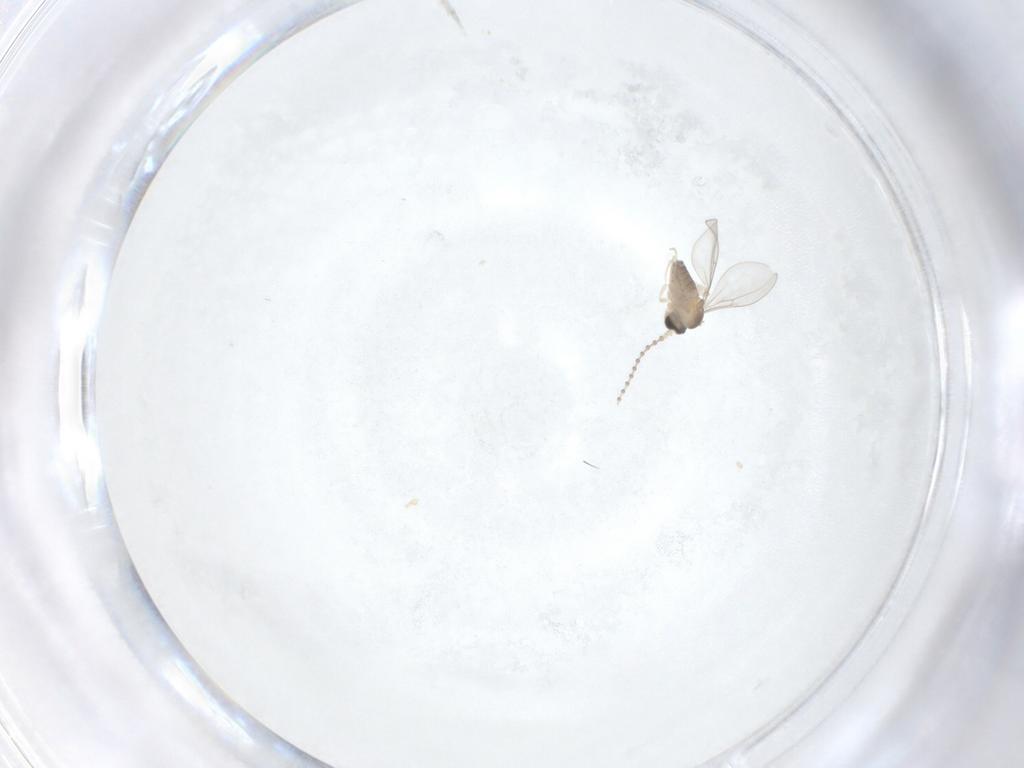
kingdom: Animalia
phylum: Arthropoda
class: Insecta
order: Diptera
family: Cecidomyiidae
